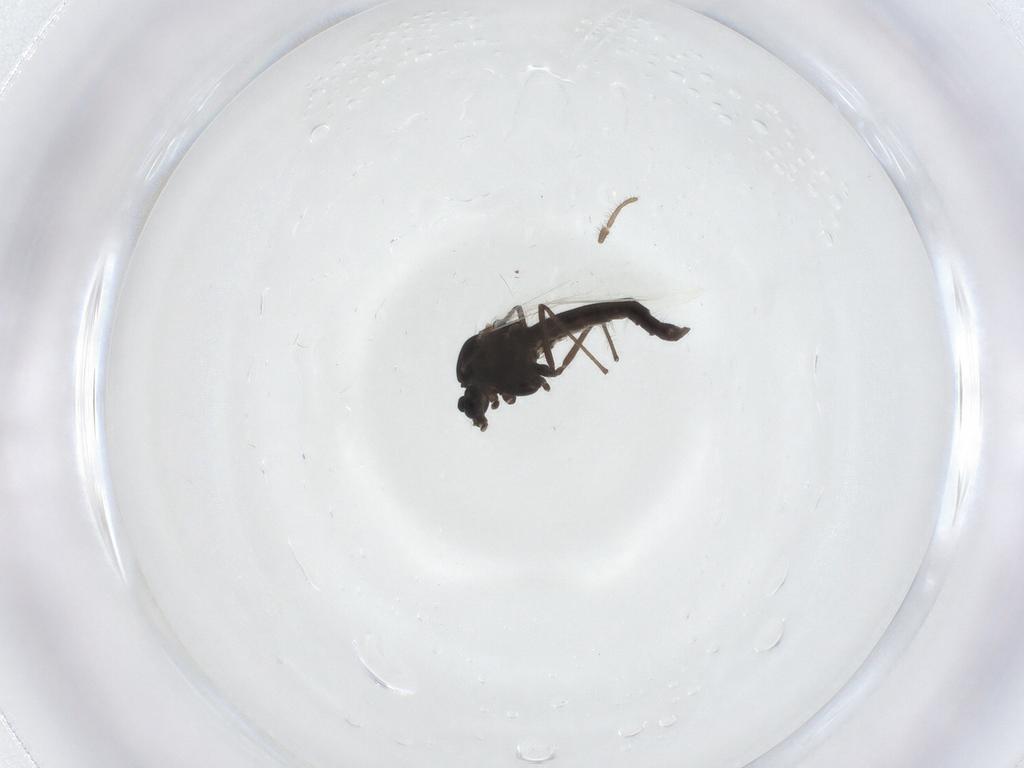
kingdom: Animalia
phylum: Arthropoda
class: Insecta
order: Diptera
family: Chironomidae
